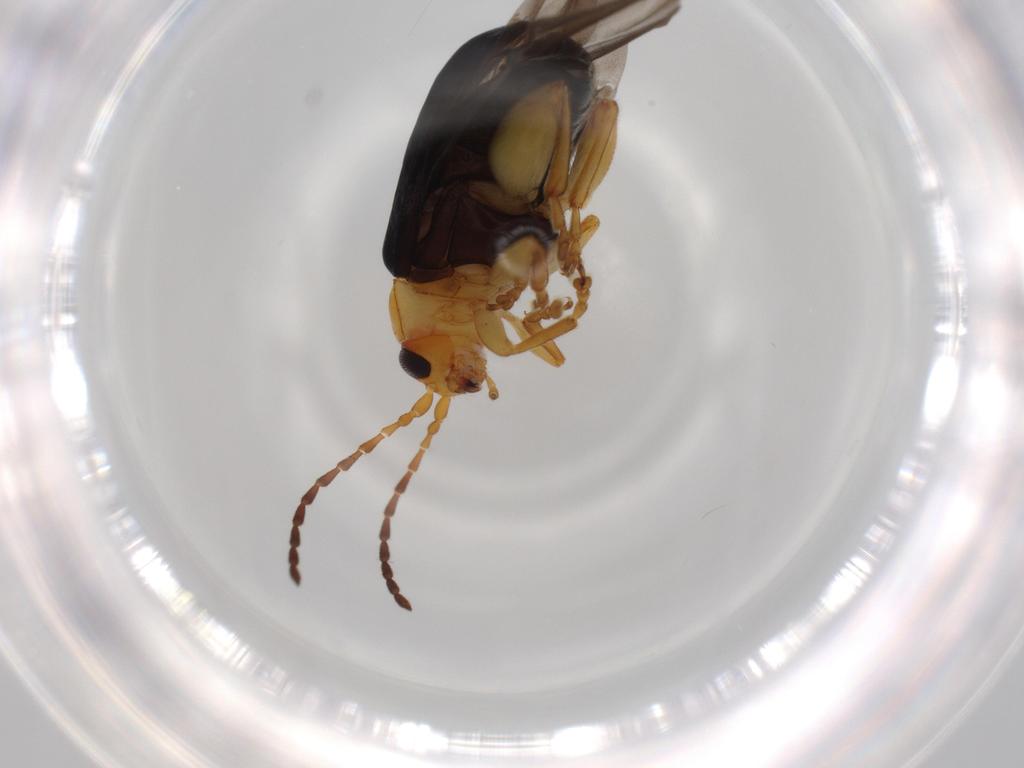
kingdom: Animalia
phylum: Arthropoda
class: Insecta
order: Coleoptera
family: Chrysomelidae
